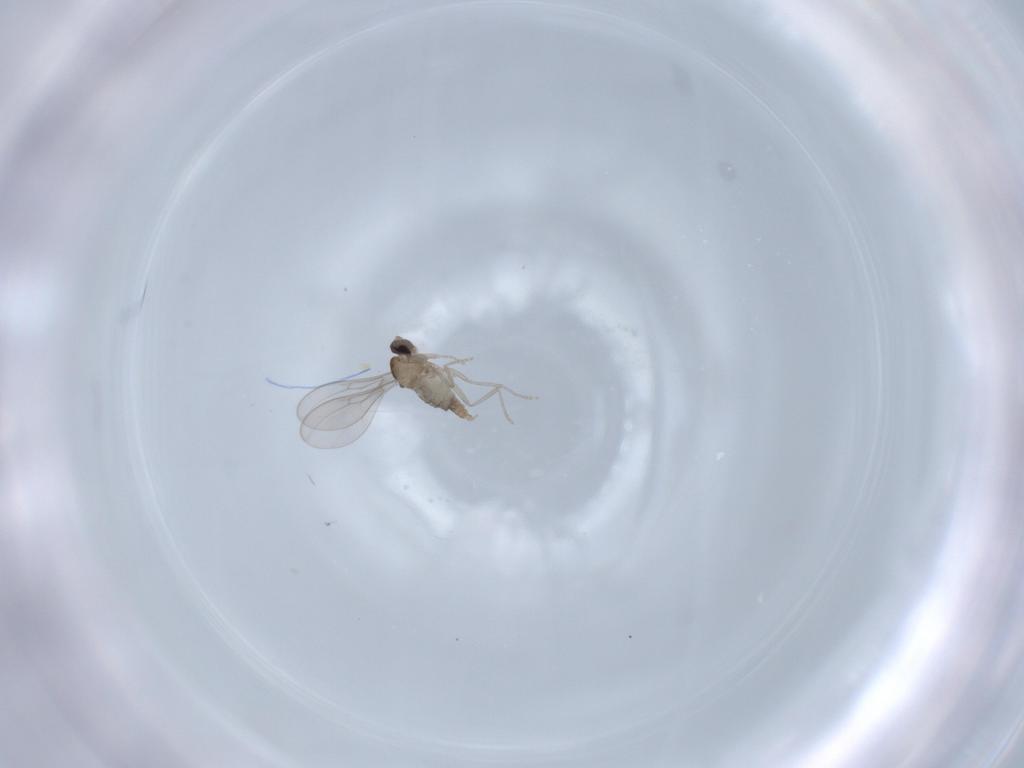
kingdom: Animalia
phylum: Arthropoda
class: Insecta
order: Diptera
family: Cecidomyiidae
